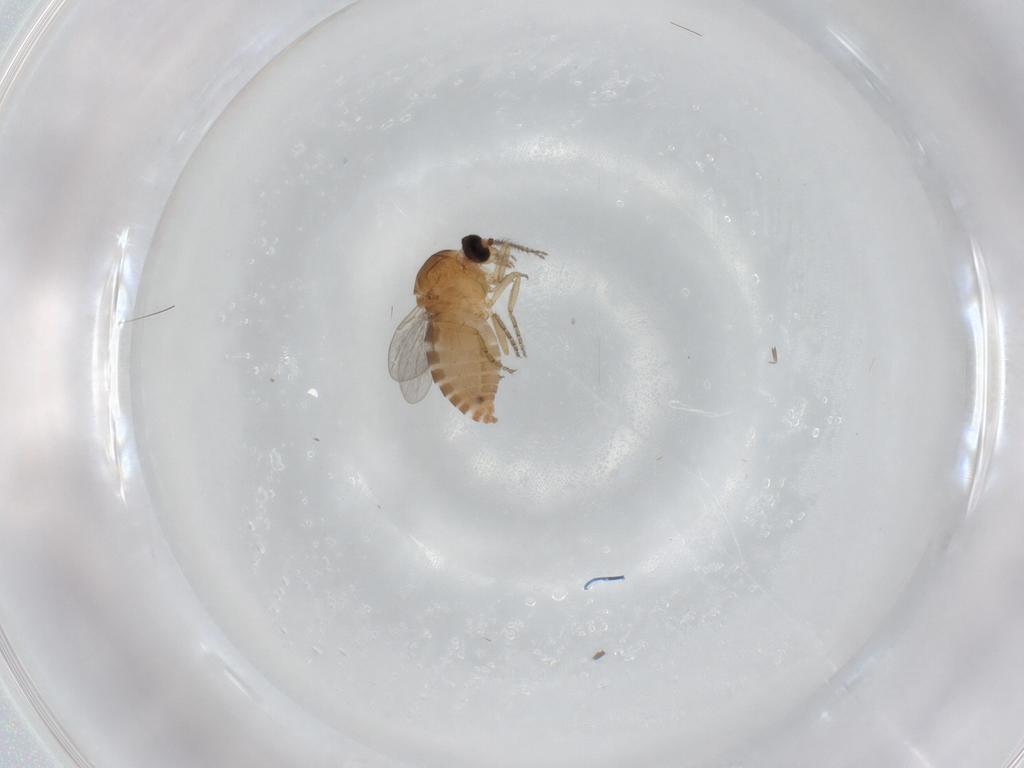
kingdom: Animalia
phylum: Arthropoda
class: Insecta
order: Diptera
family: Ceratopogonidae
